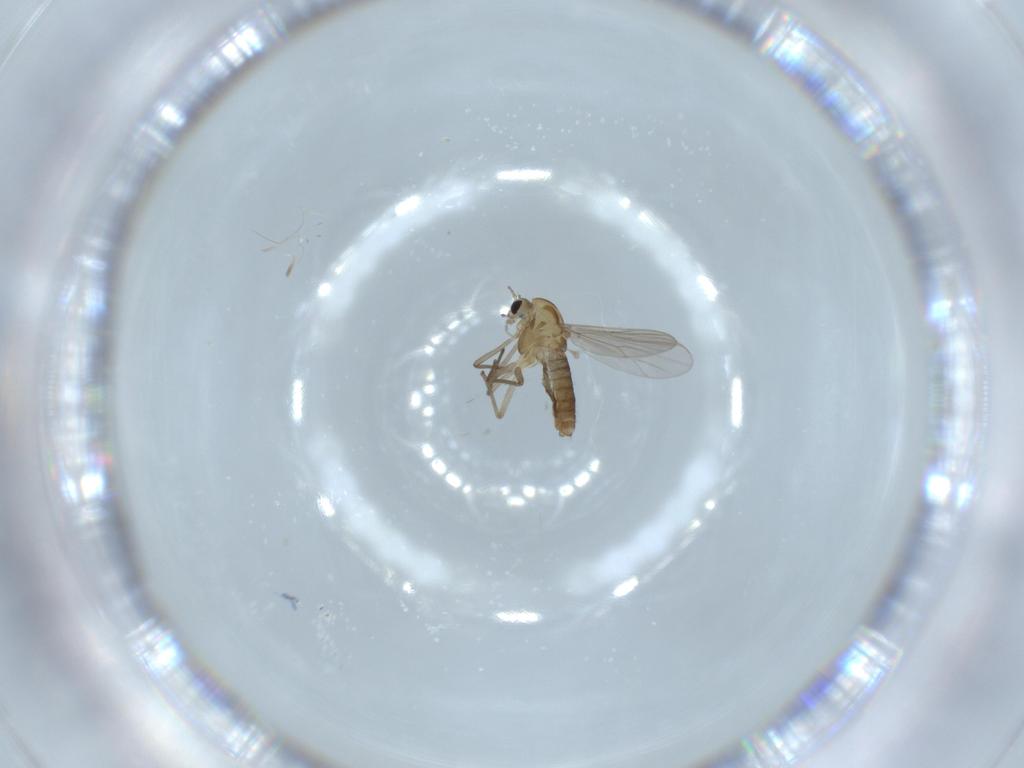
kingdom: Animalia
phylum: Arthropoda
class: Insecta
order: Diptera
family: Chironomidae
